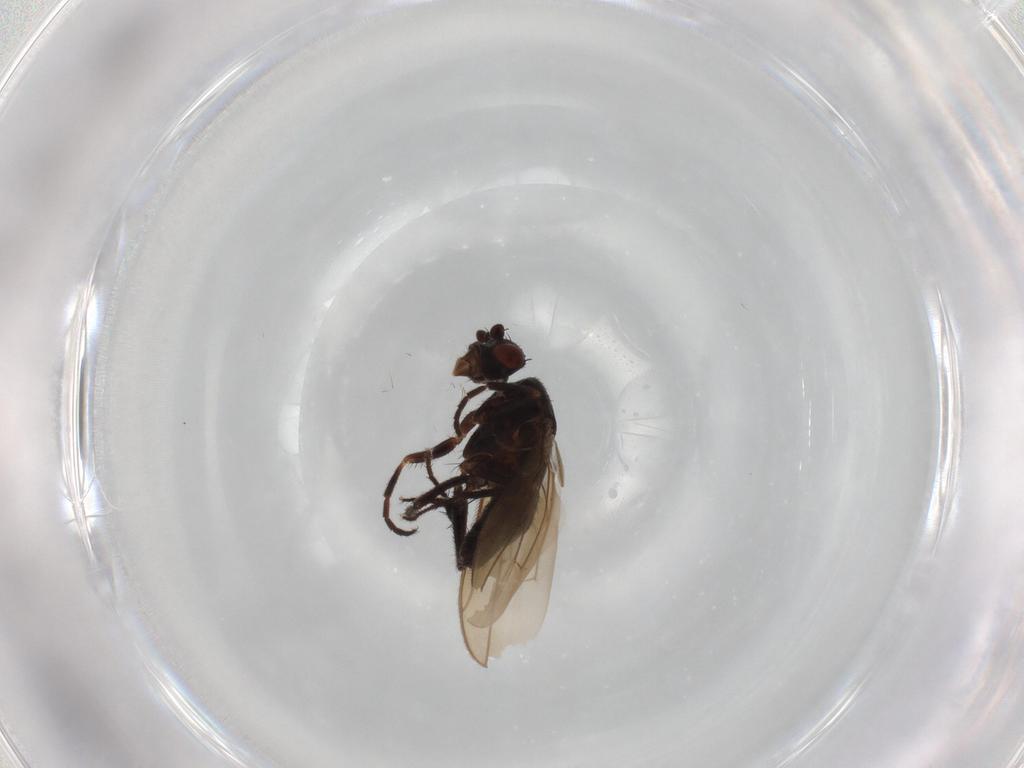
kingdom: Animalia
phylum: Arthropoda
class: Insecta
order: Diptera
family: Sphaeroceridae
